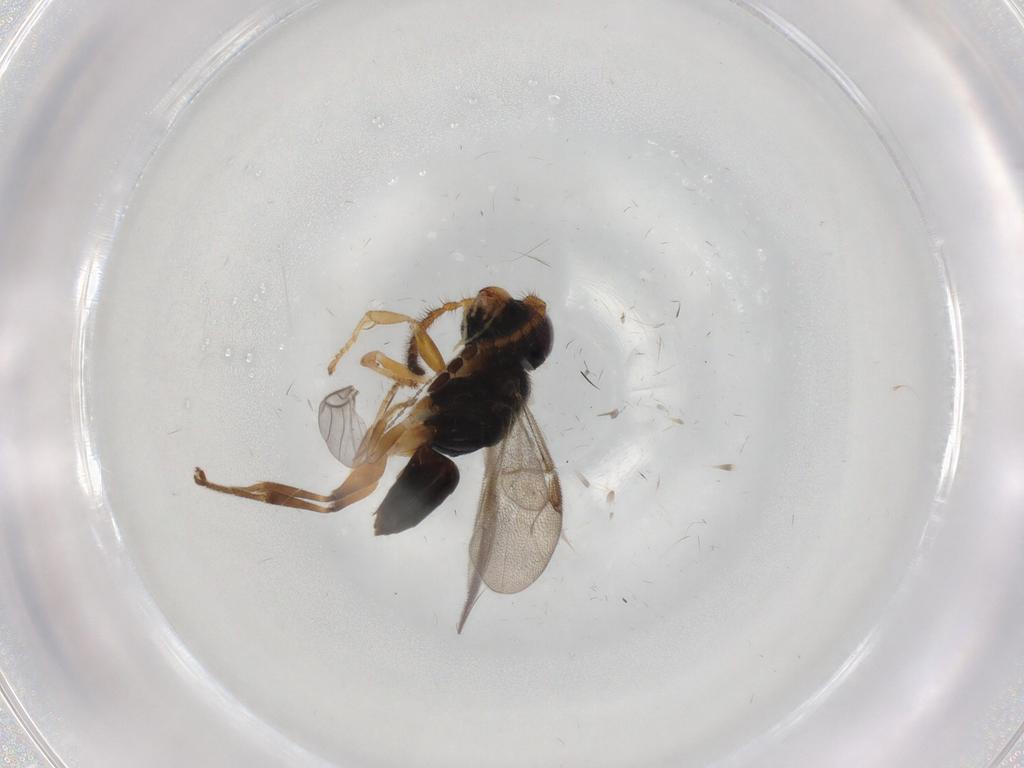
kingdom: Animalia
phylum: Arthropoda
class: Insecta
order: Hymenoptera
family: Dryinidae
